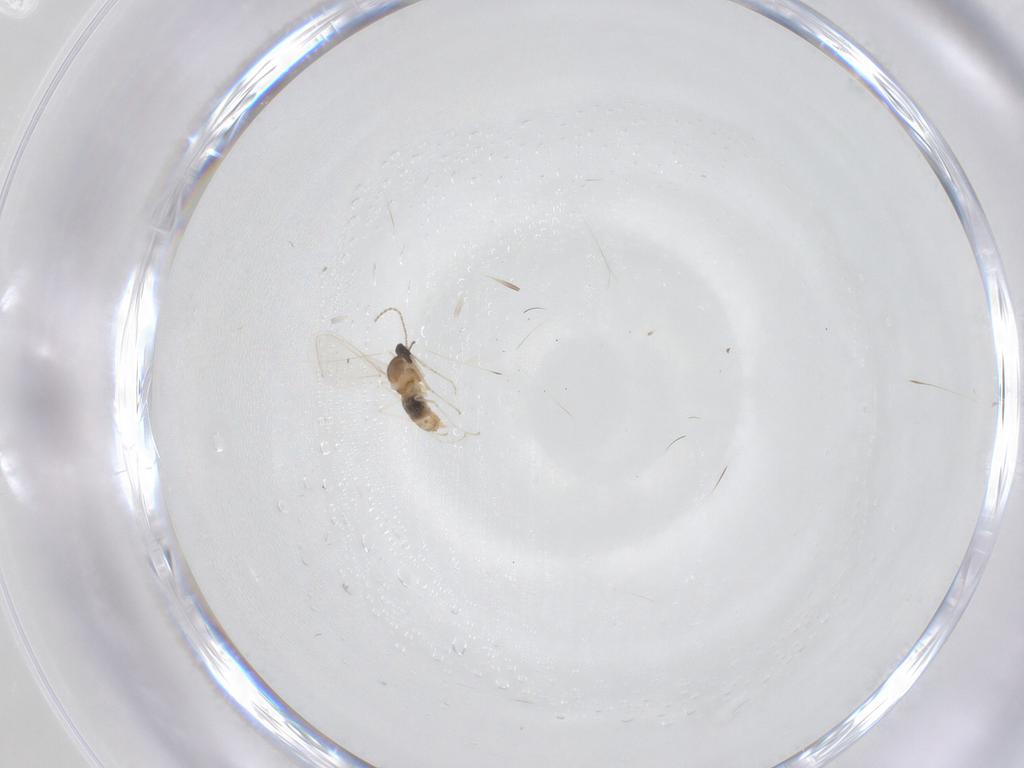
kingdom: Animalia
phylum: Arthropoda
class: Insecta
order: Diptera
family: Cecidomyiidae
